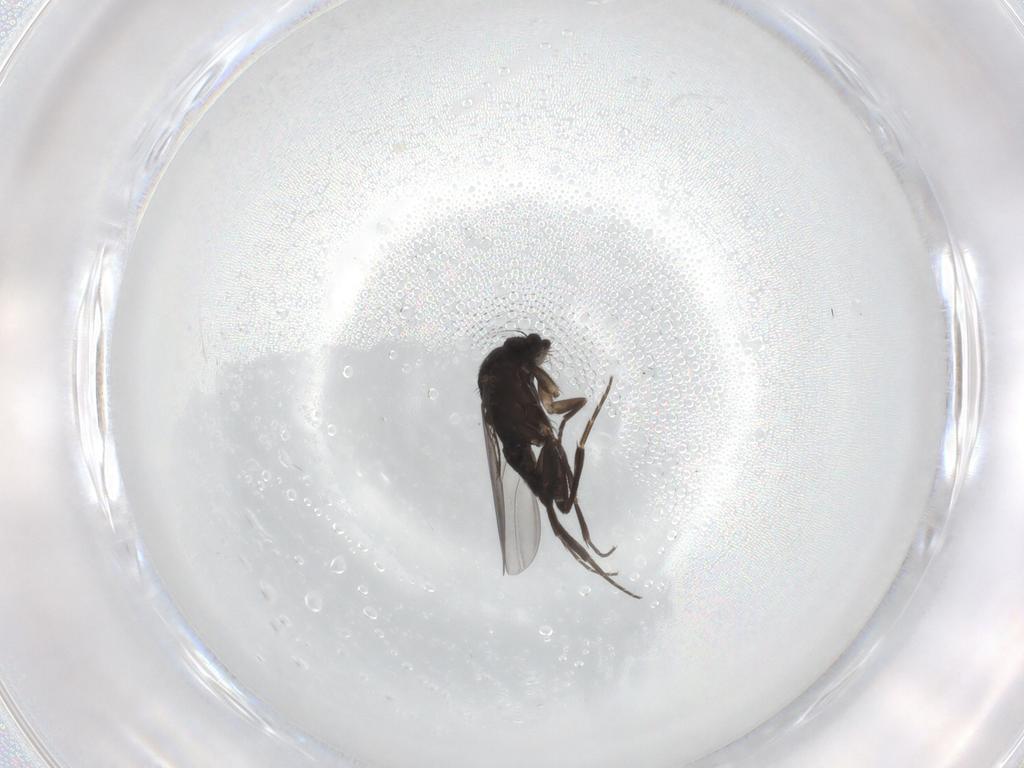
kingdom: Animalia
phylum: Arthropoda
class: Insecta
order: Diptera
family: Phoridae
